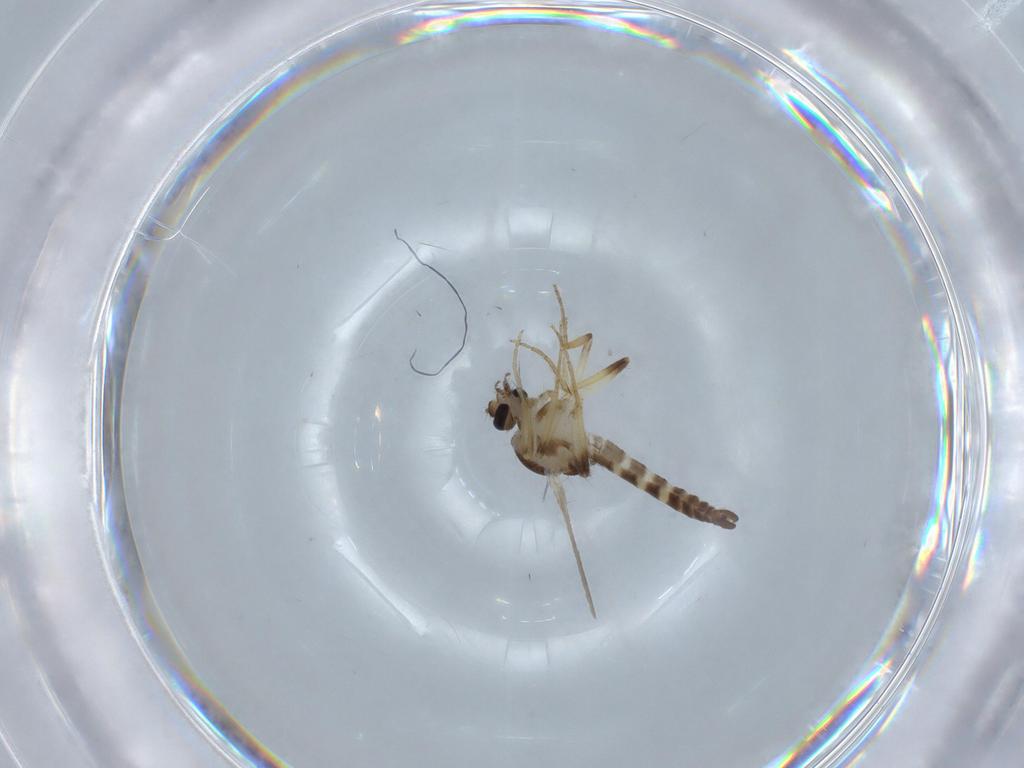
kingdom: Animalia
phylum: Arthropoda
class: Insecta
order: Diptera
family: Ceratopogonidae
